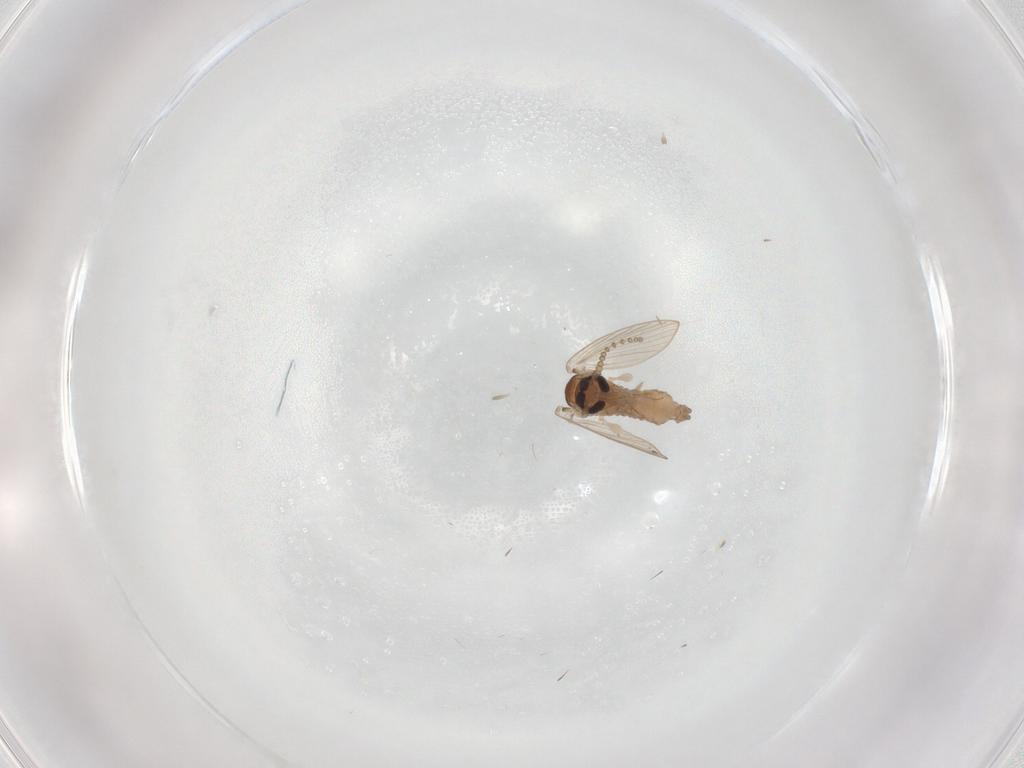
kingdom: Animalia
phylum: Arthropoda
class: Insecta
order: Diptera
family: Psychodidae
